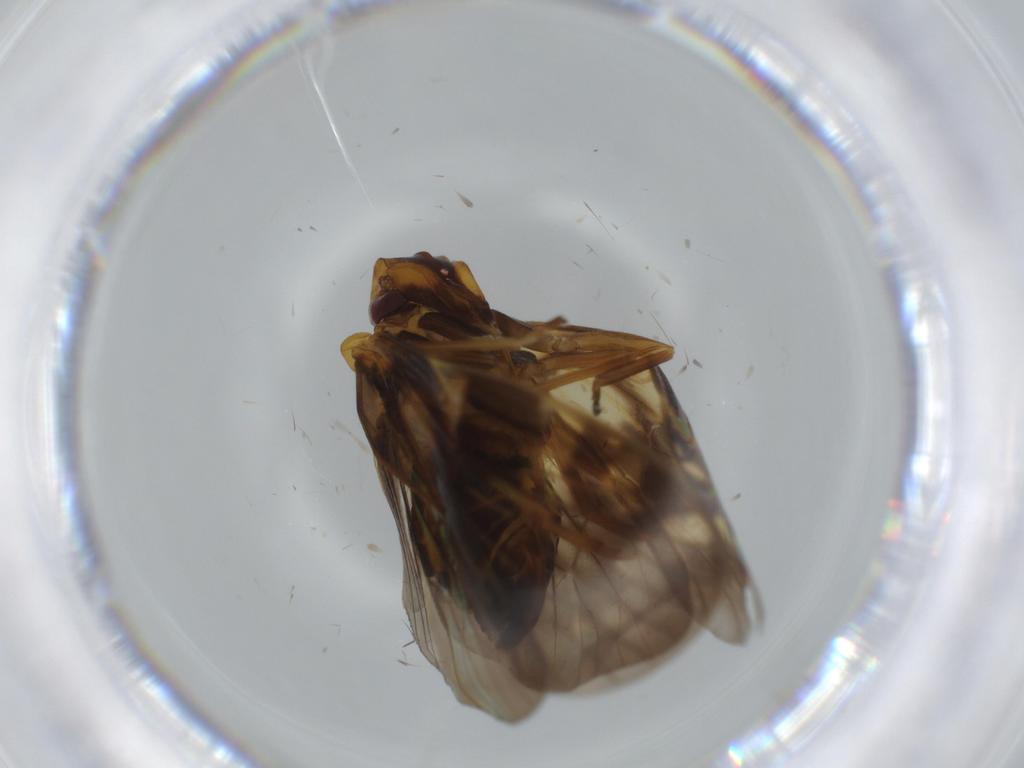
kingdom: Animalia
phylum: Arthropoda
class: Insecta
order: Hemiptera
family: Cixiidae
